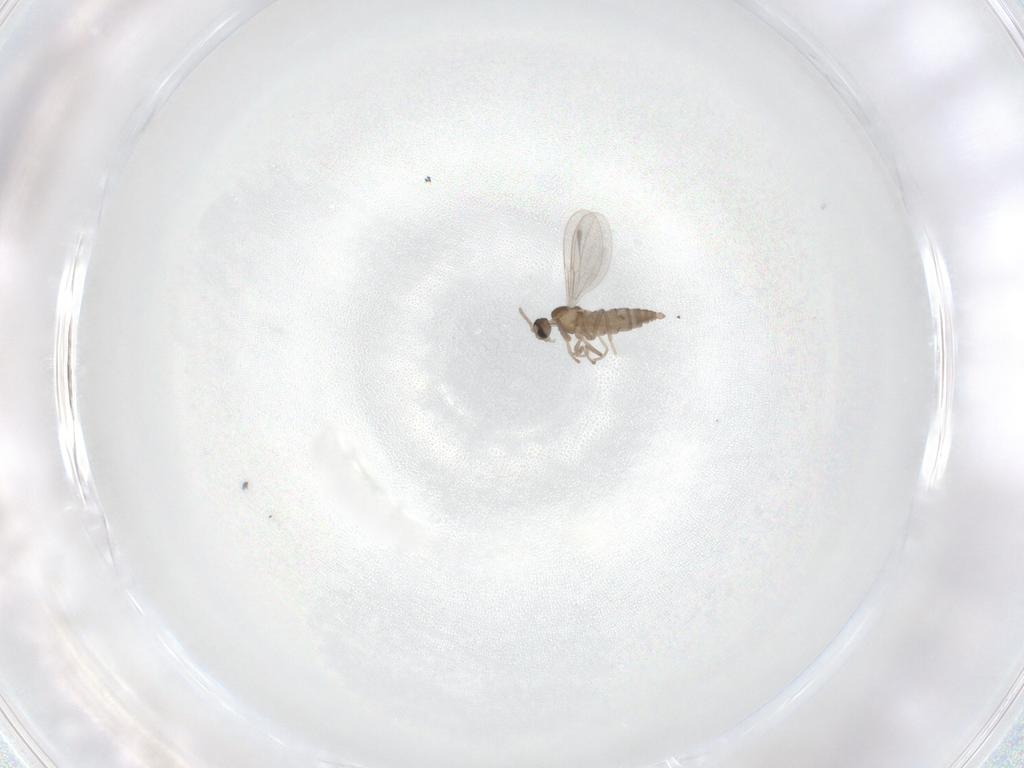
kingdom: Animalia
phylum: Arthropoda
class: Insecta
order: Diptera
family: Cecidomyiidae
